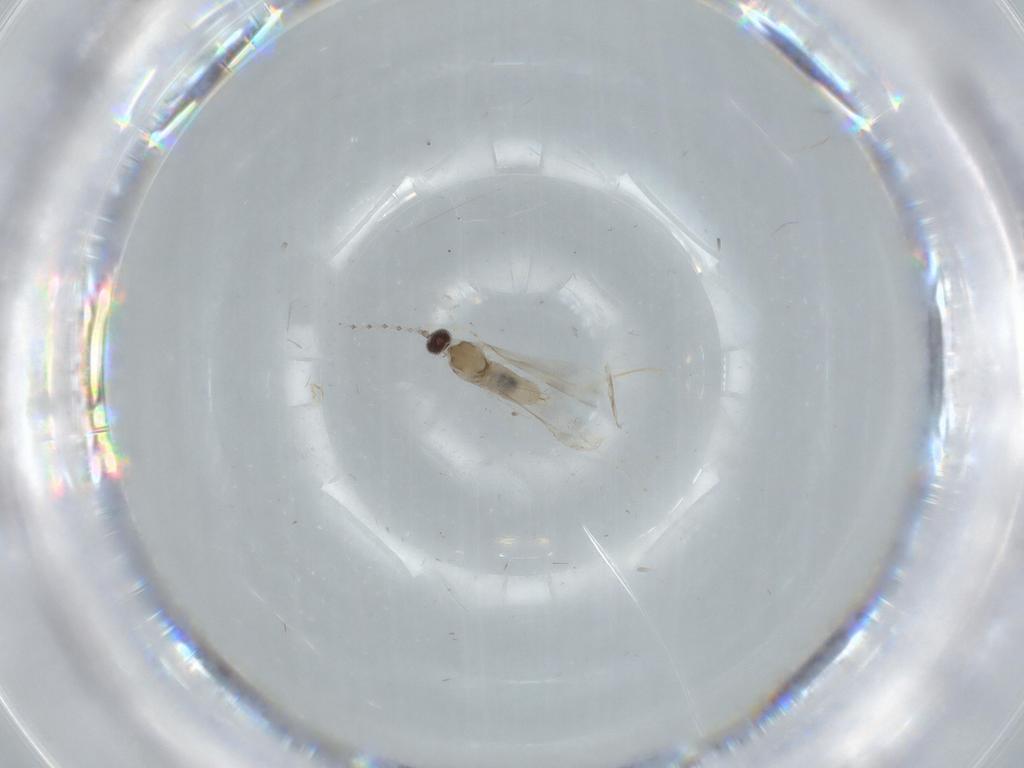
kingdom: Animalia
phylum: Arthropoda
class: Insecta
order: Diptera
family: Cecidomyiidae
